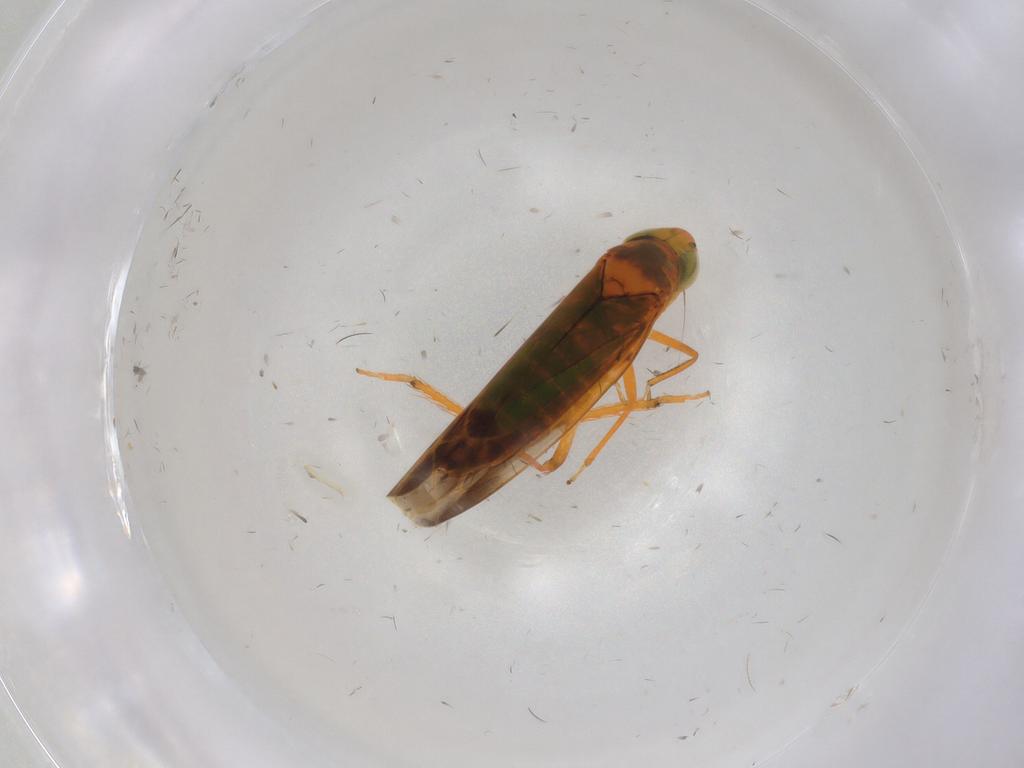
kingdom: Animalia
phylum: Arthropoda
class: Insecta
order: Hemiptera
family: Cicadellidae
